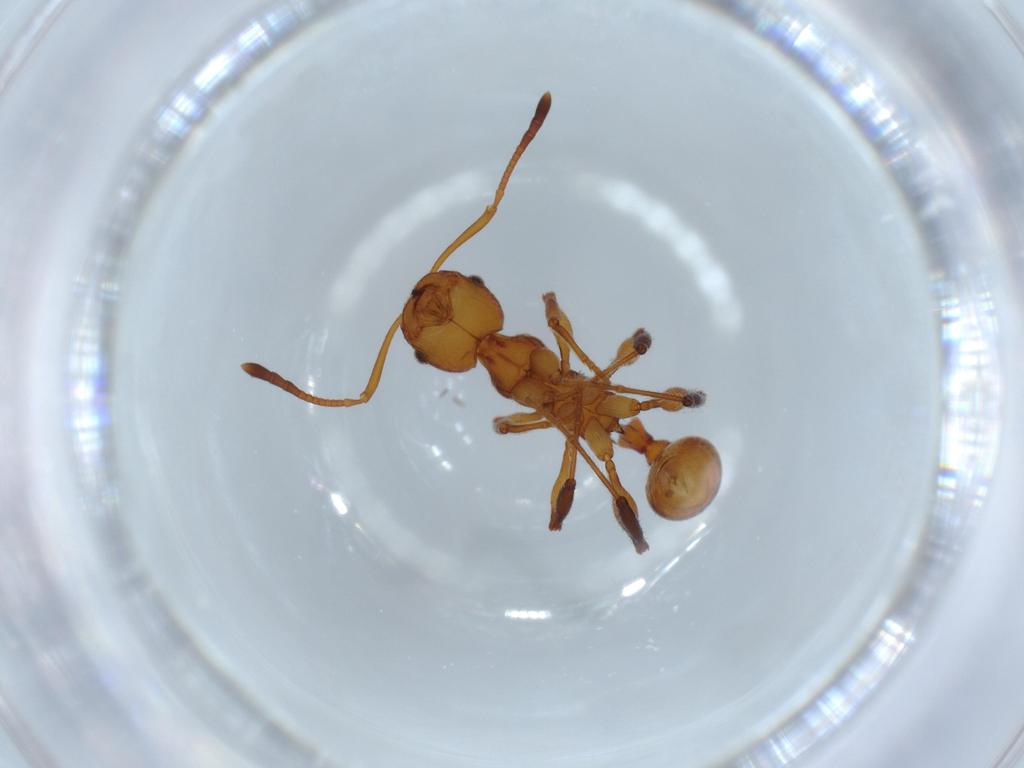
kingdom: Animalia
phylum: Arthropoda
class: Insecta
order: Hymenoptera
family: Formicidae
